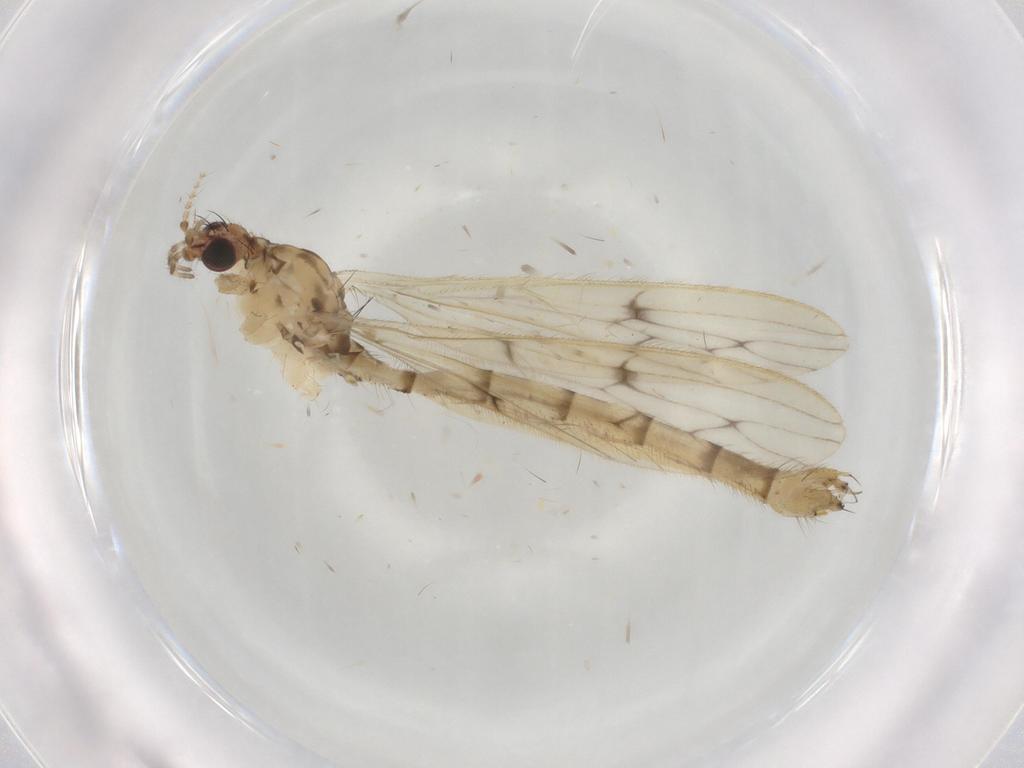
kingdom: Animalia
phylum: Arthropoda
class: Insecta
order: Diptera
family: Limoniidae
